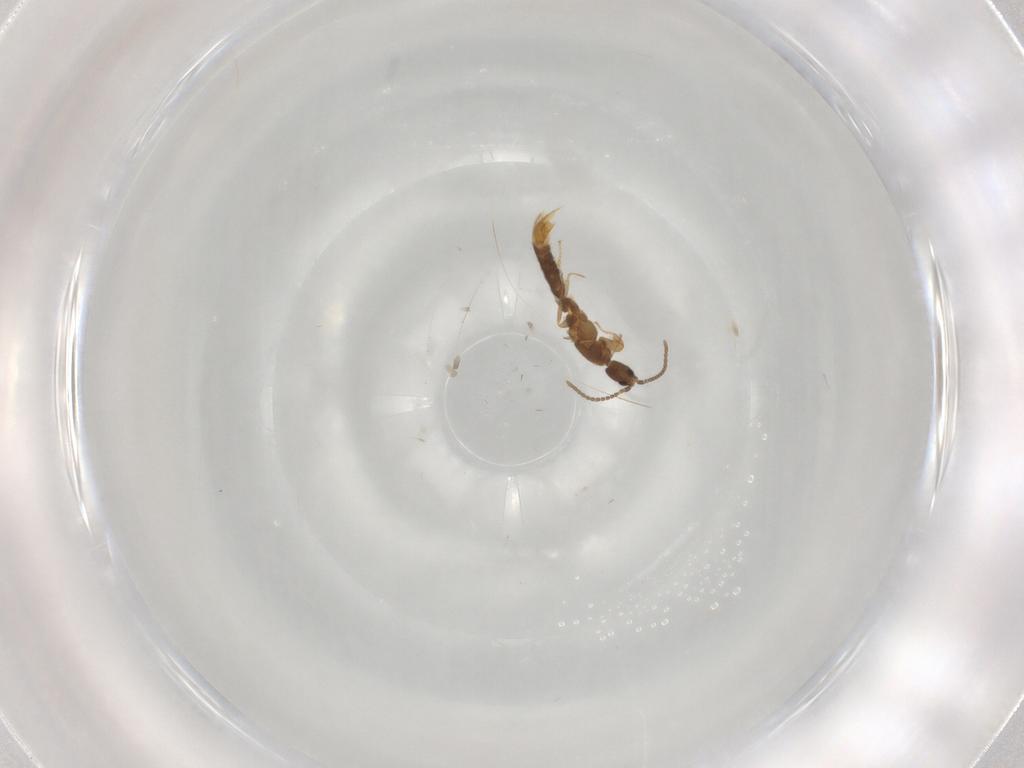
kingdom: Animalia
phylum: Arthropoda
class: Insecta
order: Hymenoptera
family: Formicidae
